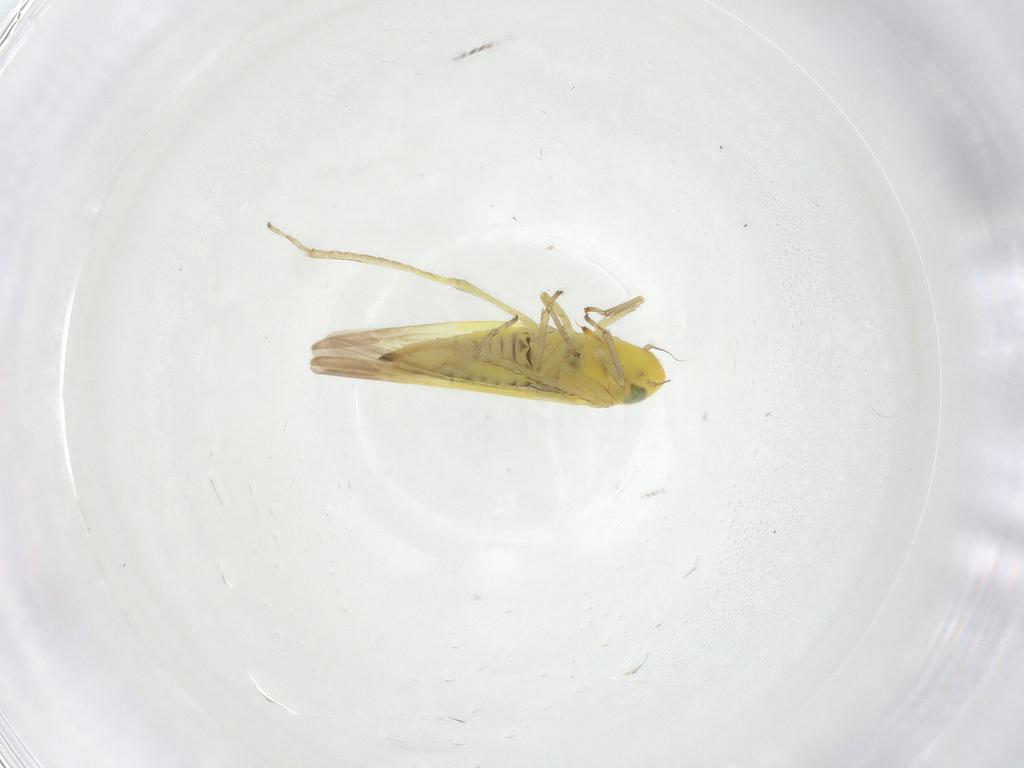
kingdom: Animalia
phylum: Arthropoda
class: Insecta
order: Hemiptera
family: Cicadellidae
